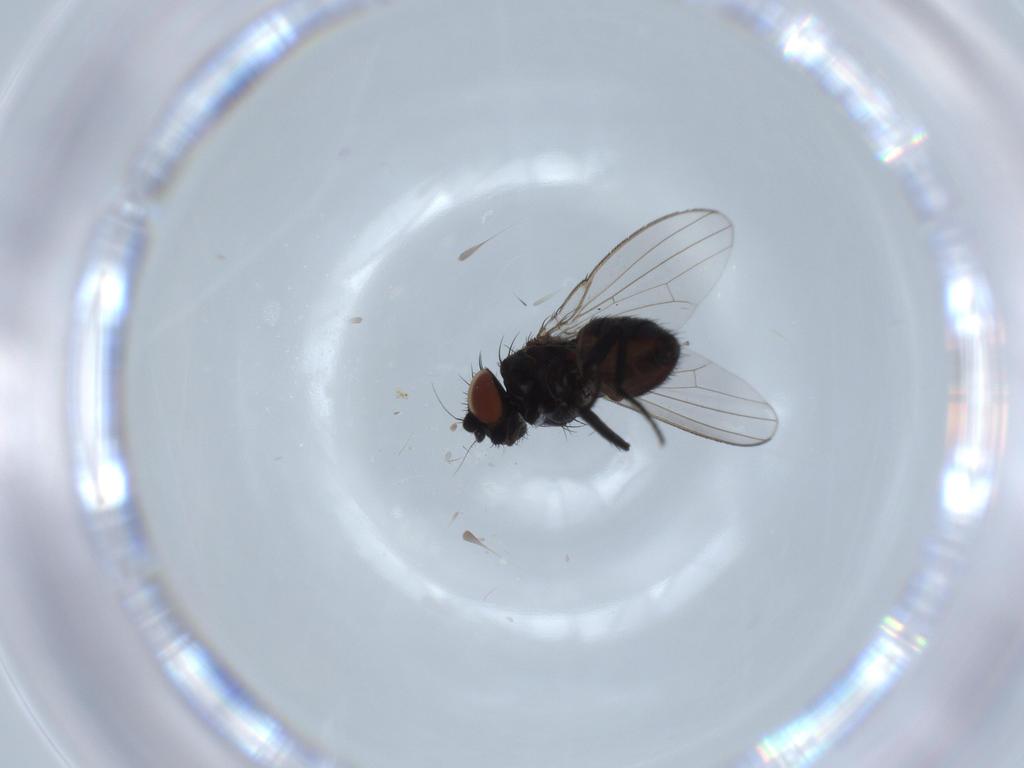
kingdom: Animalia
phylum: Arthropoda
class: Insecta
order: Diptera
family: Milichiidae
